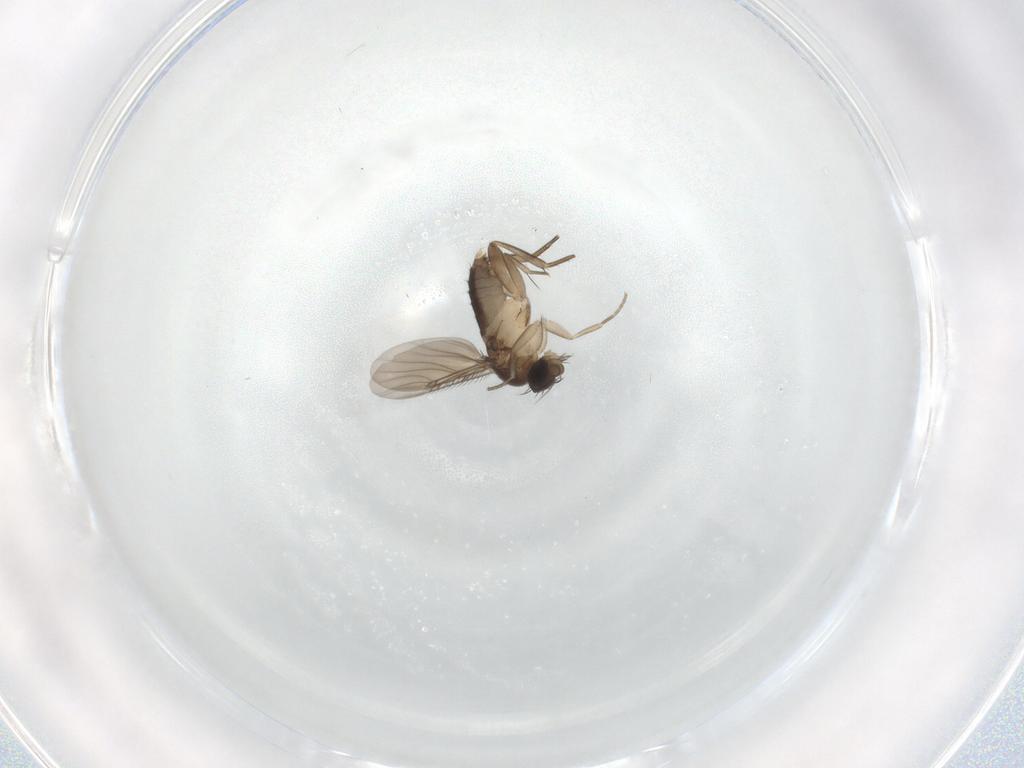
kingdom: Animalia
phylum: Arthropoda
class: Insecta
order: Diptera
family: Phoridae
